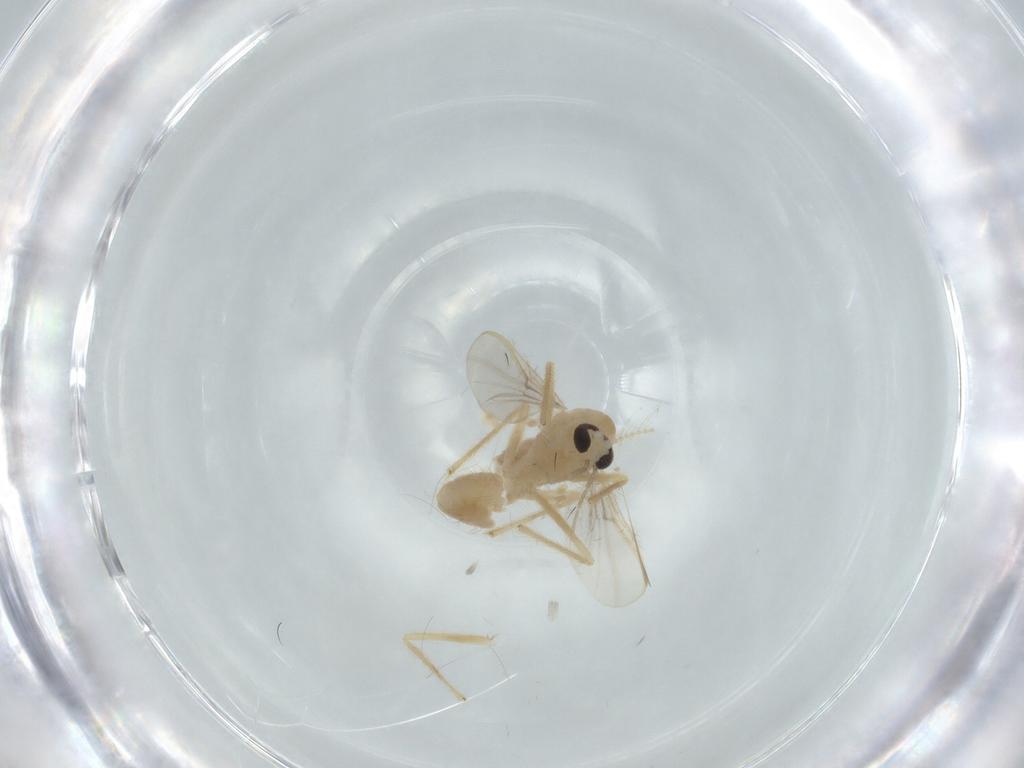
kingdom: Animalia
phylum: Arthropoda
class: Insecta
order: Diptera
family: Chironomidae
